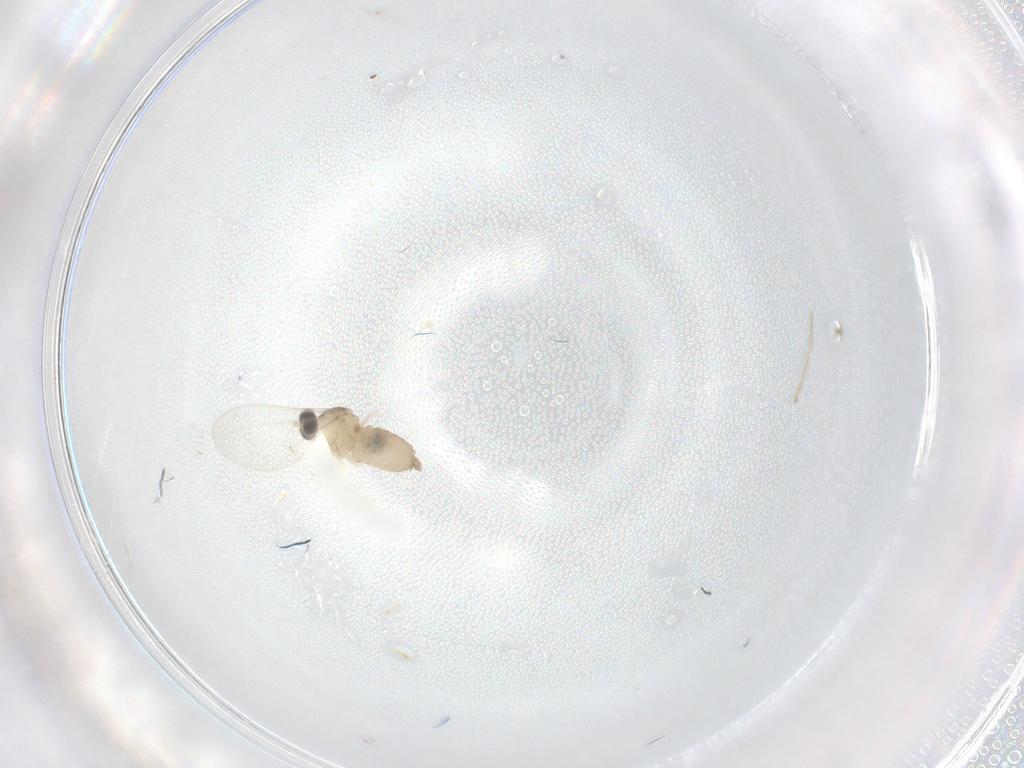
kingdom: Animalia
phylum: Arthropoda
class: Insecta
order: Diptera
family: Cecidomyiidae
